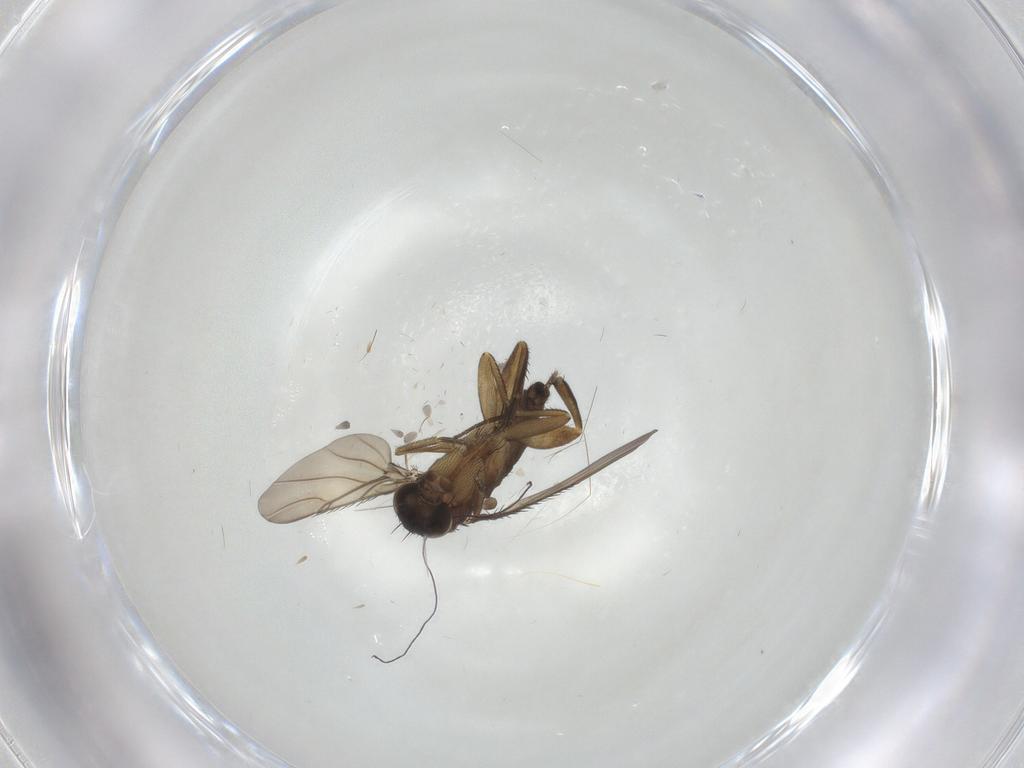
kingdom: Animalia
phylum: Arthropoda
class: Insecta
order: Diptera
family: Phoridae
